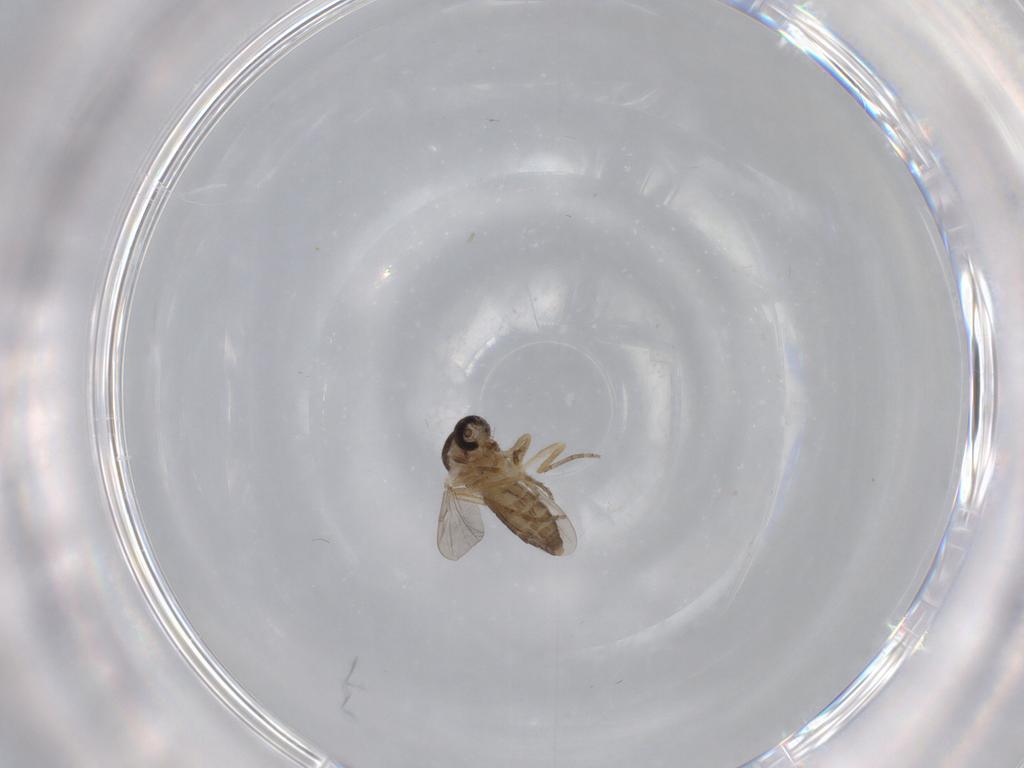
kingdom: Animalia
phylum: Arthropoda
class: Insecta
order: Diptera
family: Ceratopogonidae
